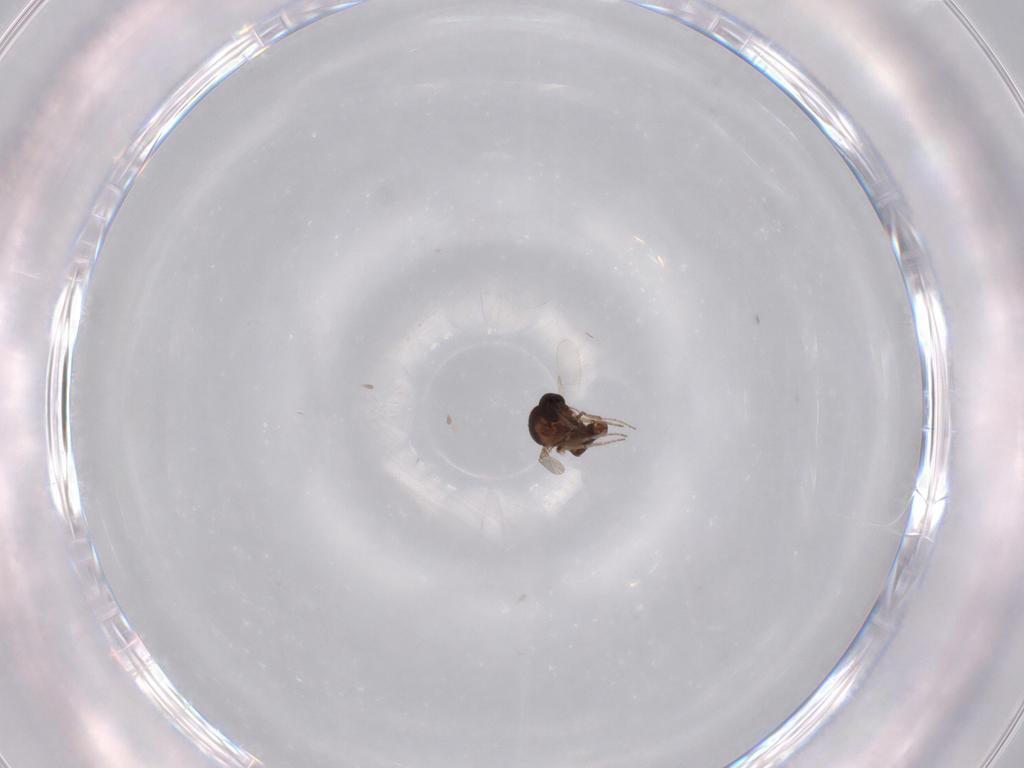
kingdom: Animalia
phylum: Arthropoda
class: Insecta
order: Diptera
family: Ceratopogonidae
